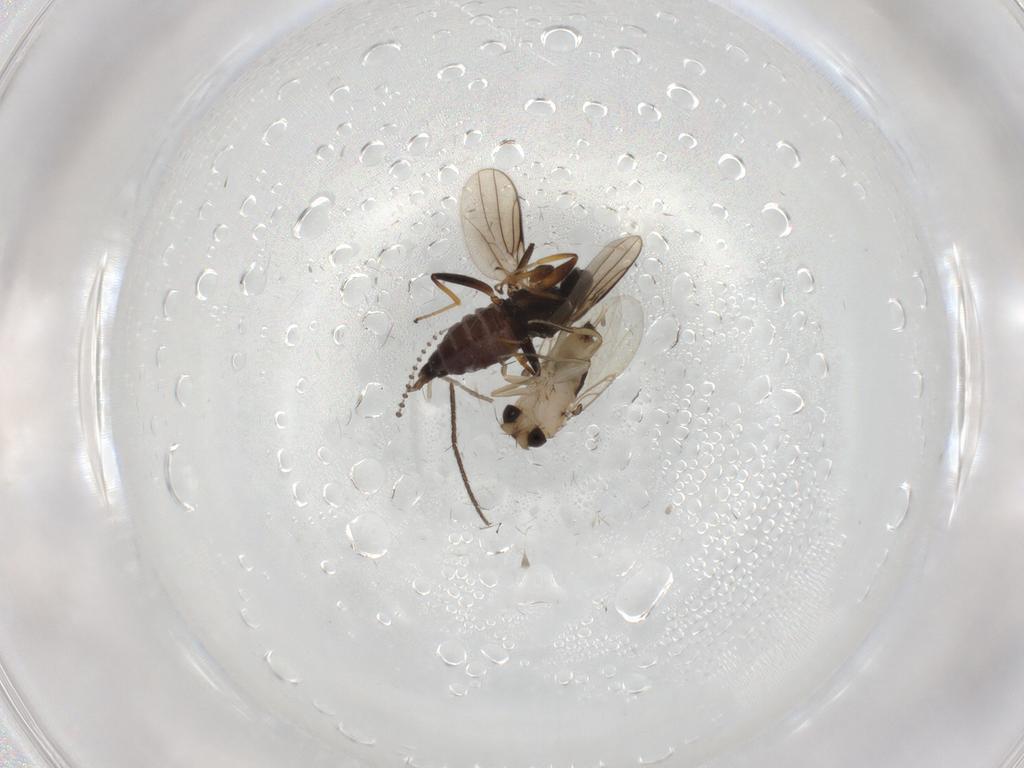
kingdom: Animalia
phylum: Arthropoda
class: Insecta
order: Diptera
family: Hybotidae
